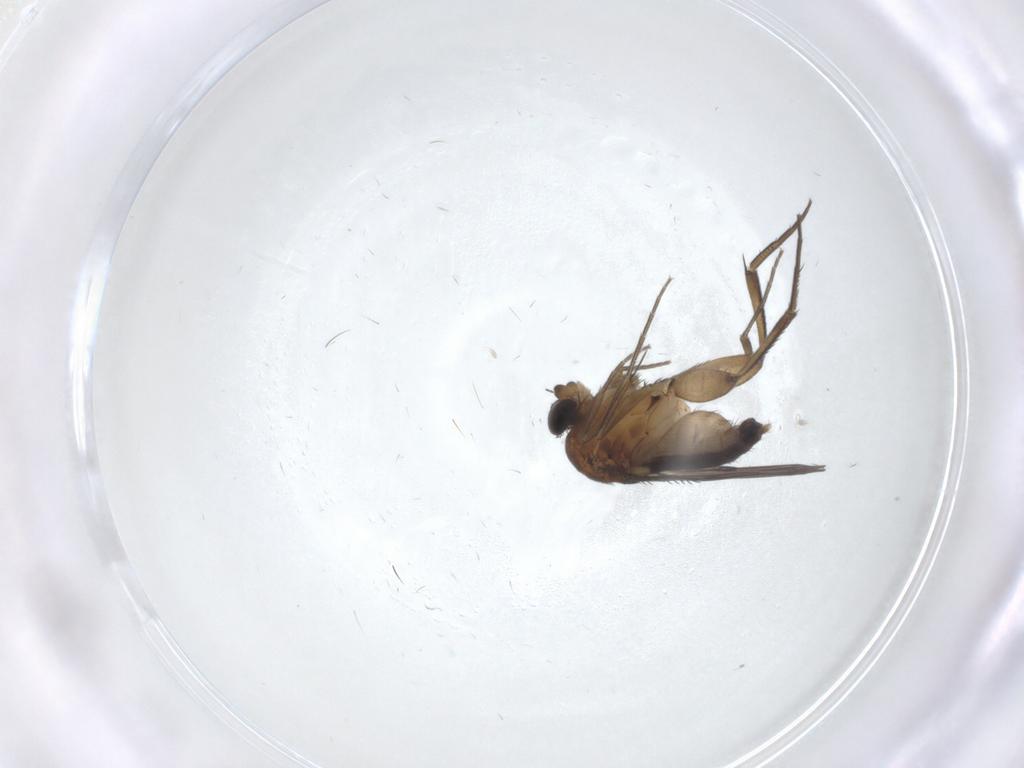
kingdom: Animalia
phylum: Arthropoda
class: Insecta
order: Diptera
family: Phoridae
